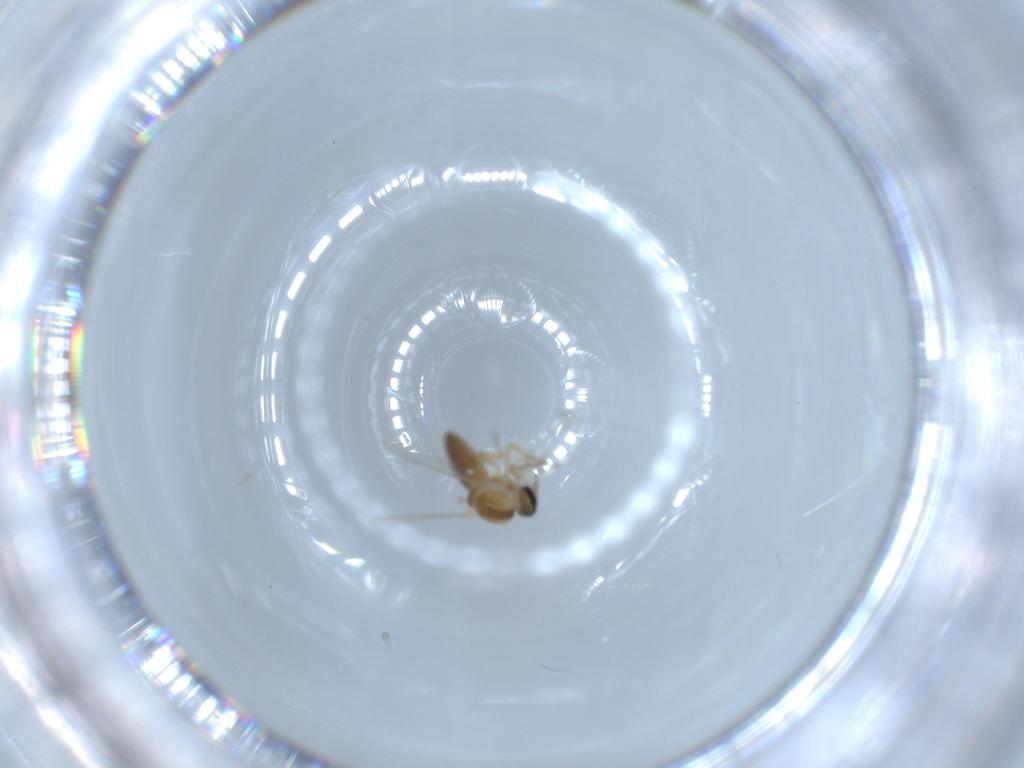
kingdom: Animalia
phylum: Arthropoda
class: Insecta
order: Diptera
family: Ceratopogonidae
